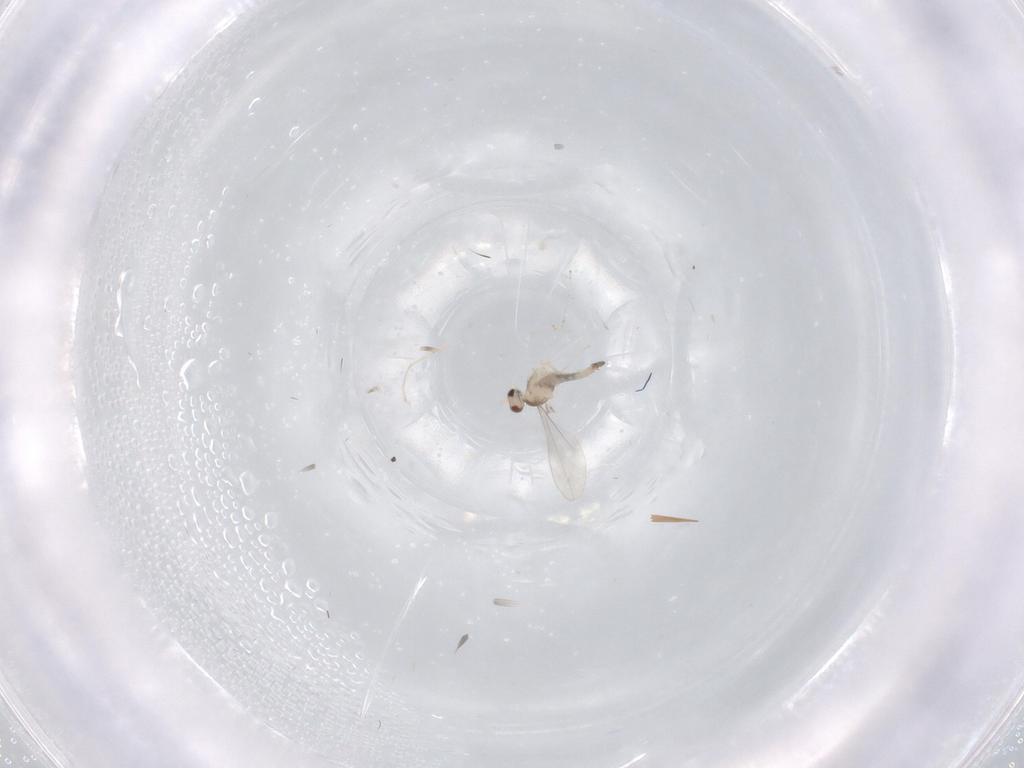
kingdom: Animalia
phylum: Arthropoda
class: Insecta
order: Diptera
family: Cecidomyiidae
